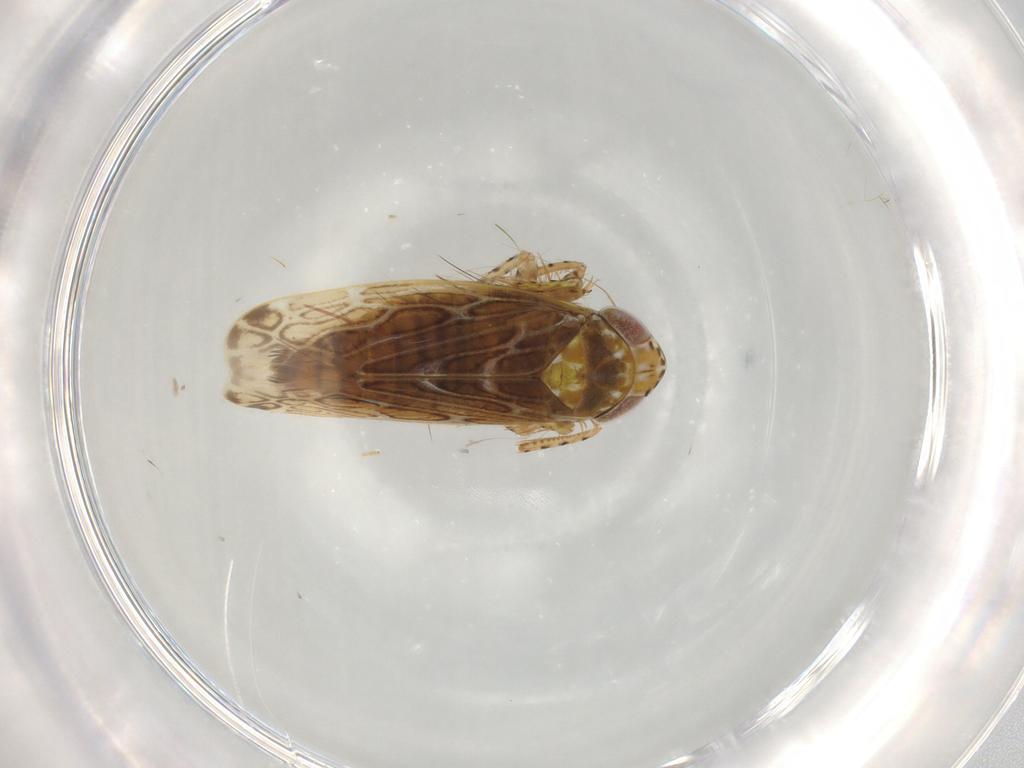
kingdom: Animalia
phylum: Arthropoda
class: Insecta
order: Hemiptera
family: Cicadellidae
